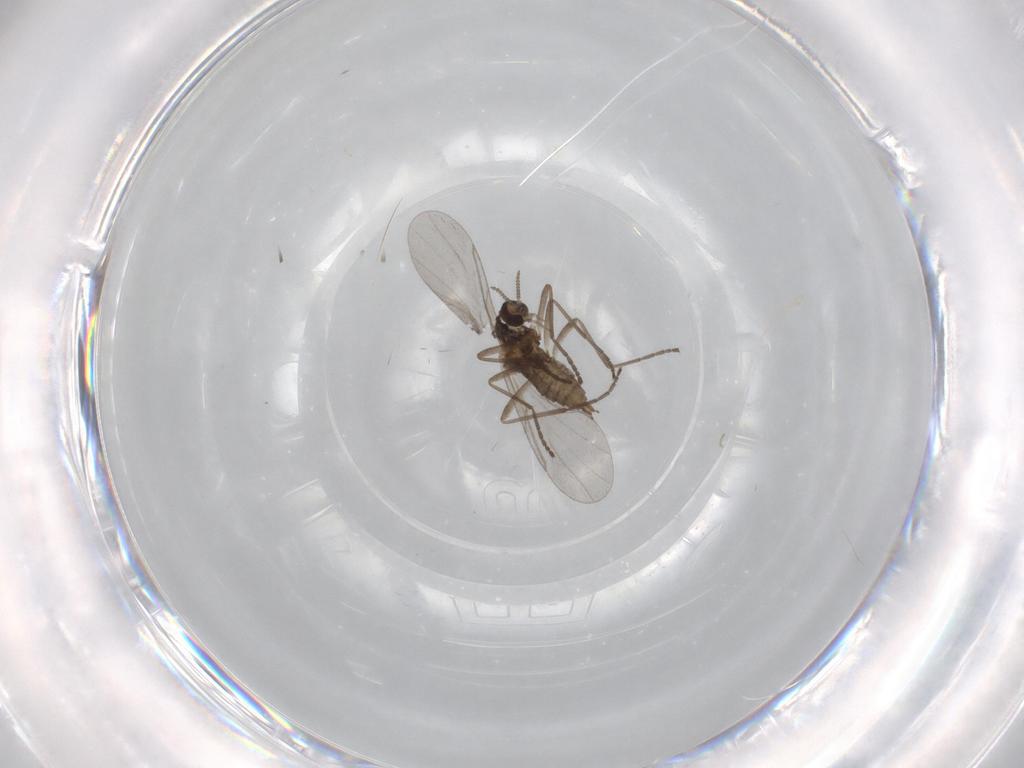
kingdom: Animalia
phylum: Arthropoda
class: Insecta
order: Diptera
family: Cecidomyiidae
